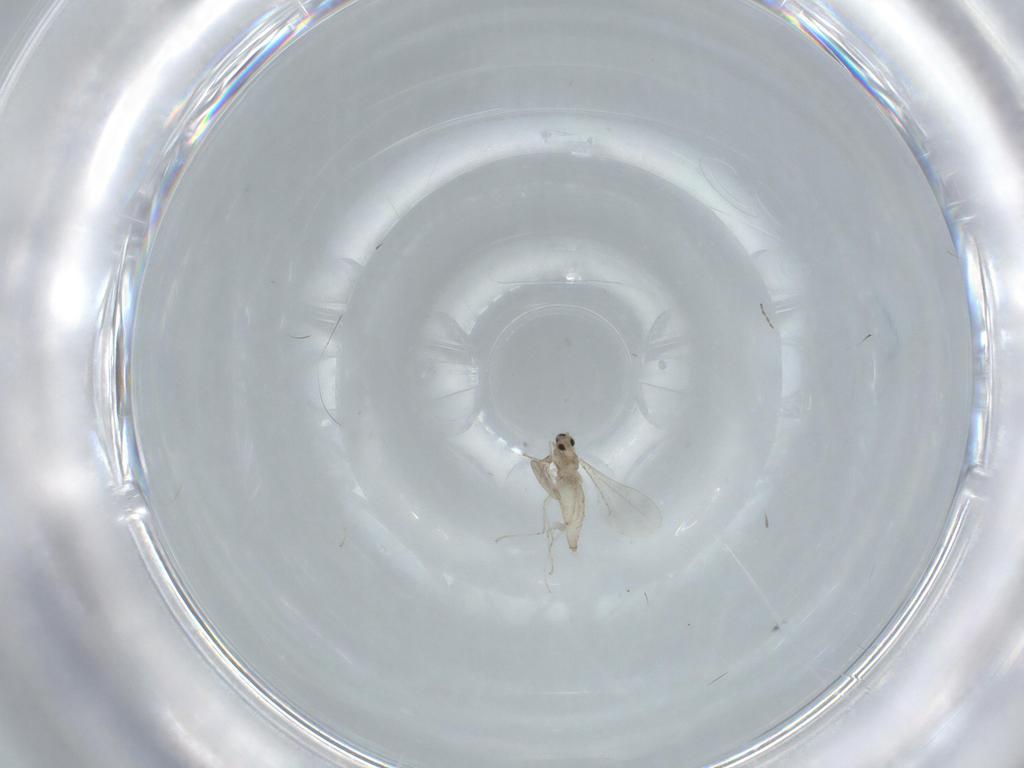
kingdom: Animalia
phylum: Arthropoda
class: Insecta
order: Diptera
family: Cecidomyiidae
